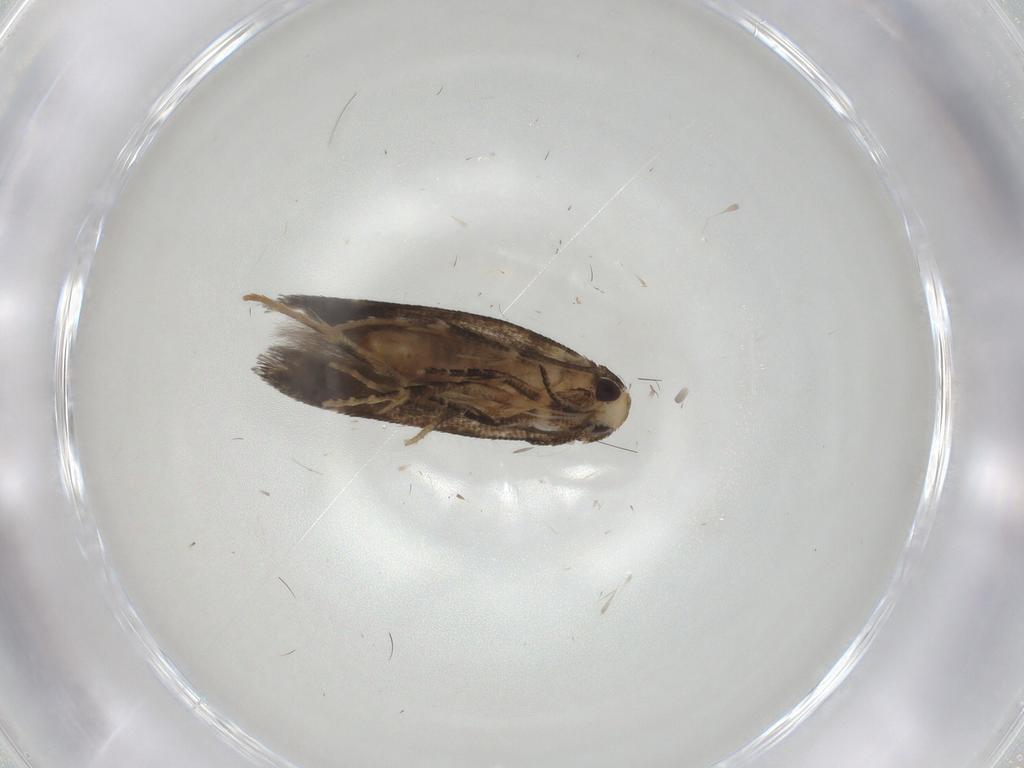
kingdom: Animalia
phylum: Arthropoda
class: Insecta
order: Lepidoptera
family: Cosmopterigidae
